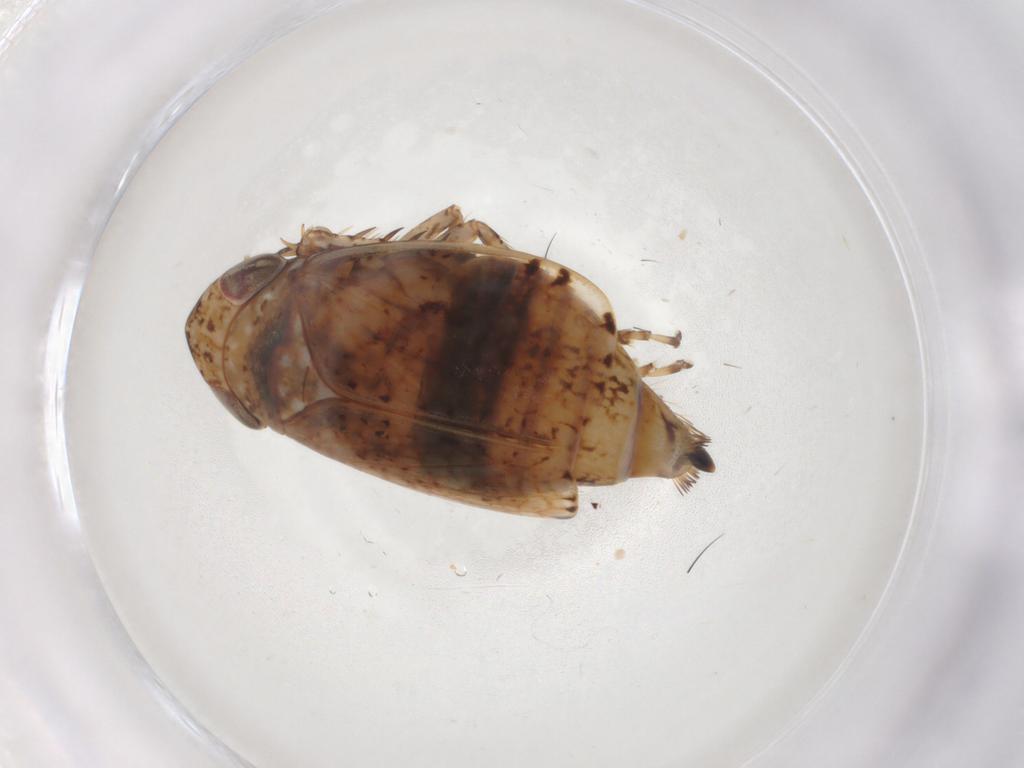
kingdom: Animalia
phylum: Arthropoda
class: Insecta
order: Hemiptera
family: Cicadellidae
